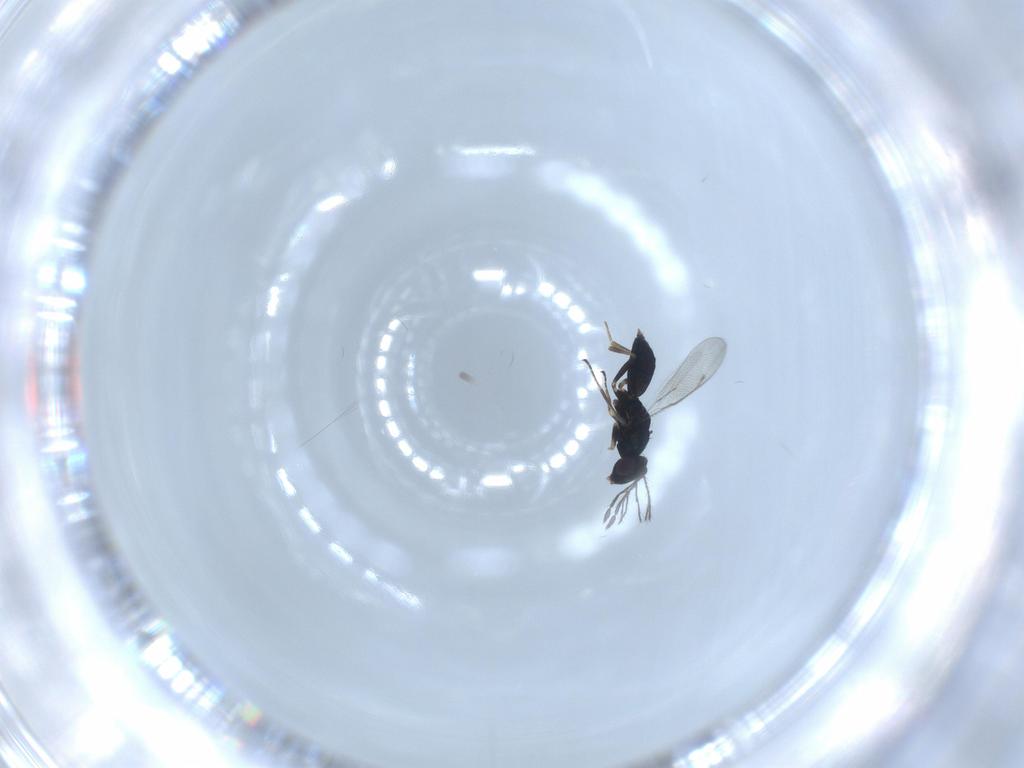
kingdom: Animalia
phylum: Arthropoda
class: Insecta
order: Hymenoptera
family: Scelionidae
